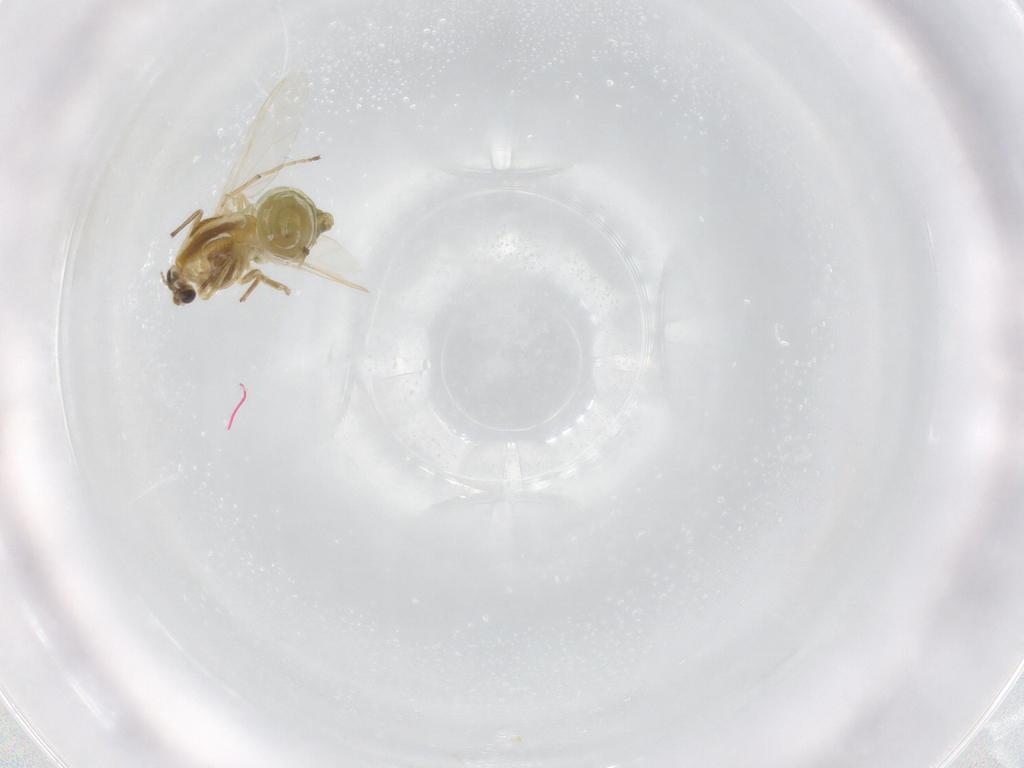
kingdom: Animalia
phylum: Arthropoda
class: Insecta
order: Diptera
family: Chironomidae
